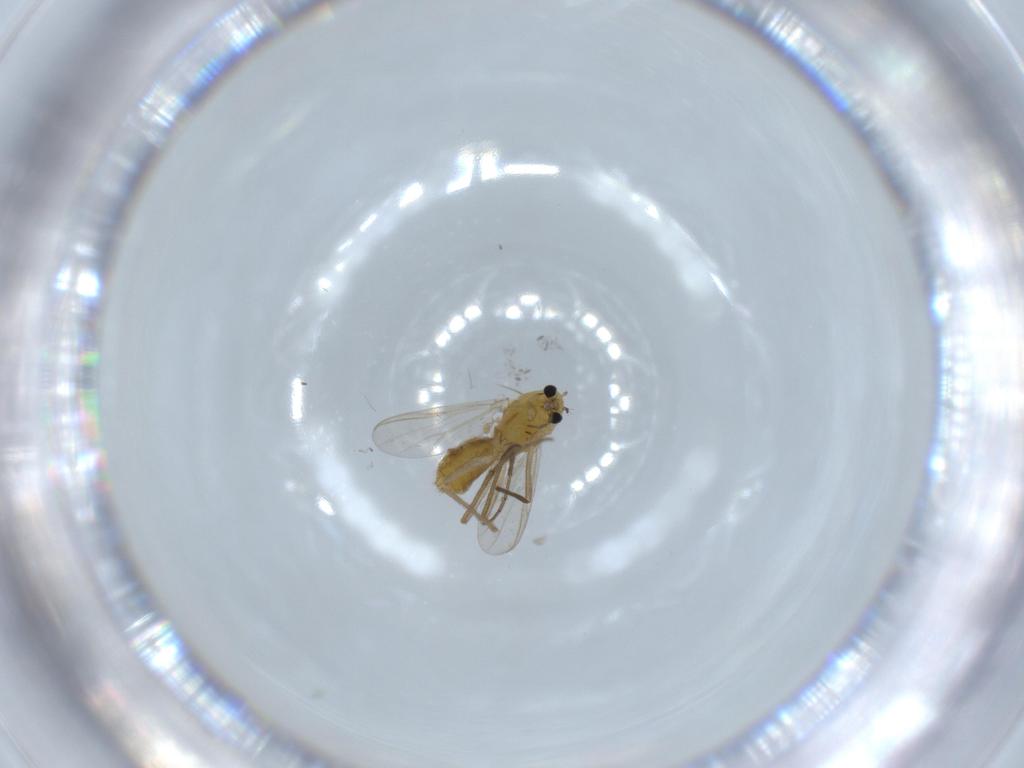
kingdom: Animalia
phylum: Arthropoda
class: Insecta
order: Diptera
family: Chironomidae
